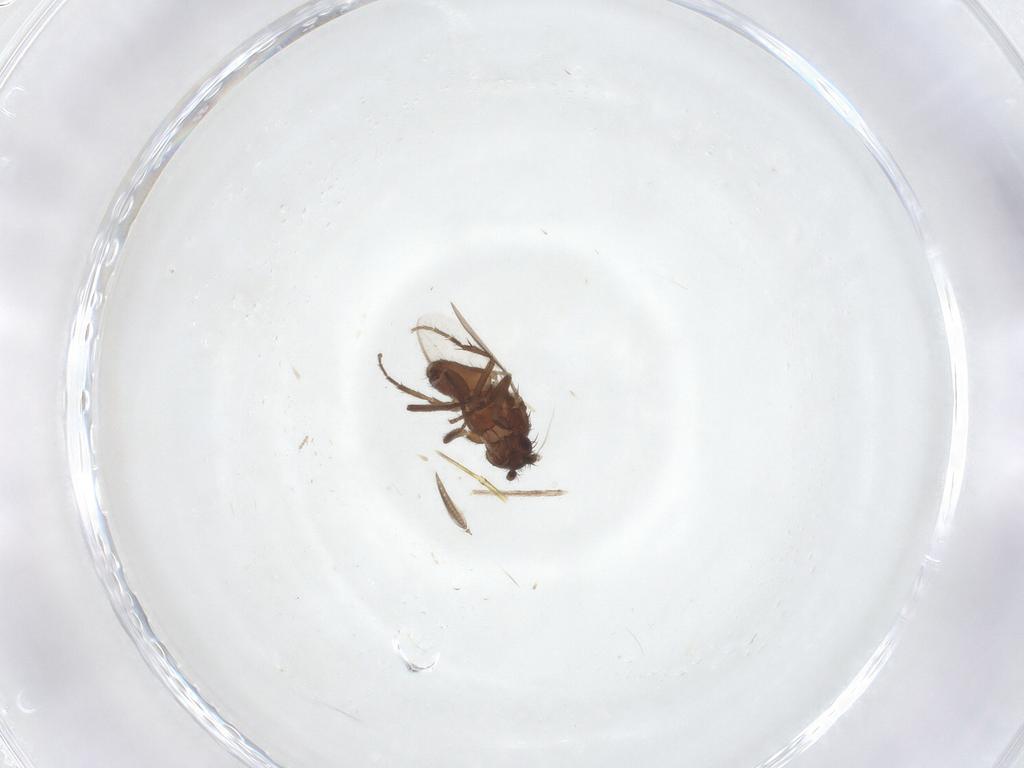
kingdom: Animalia
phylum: Arthropoda
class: Insecta
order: Diptera
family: Sphaeroceridae
